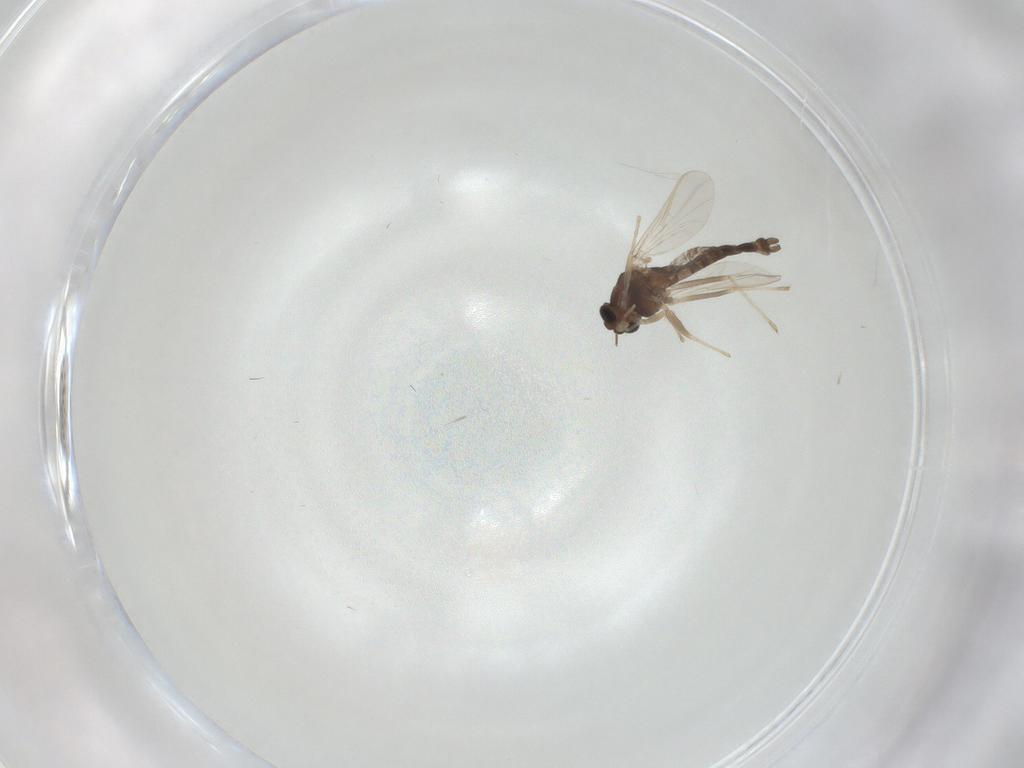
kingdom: Animalia
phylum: Arthropoda
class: Insecta
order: Diptera
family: Chironomidae
